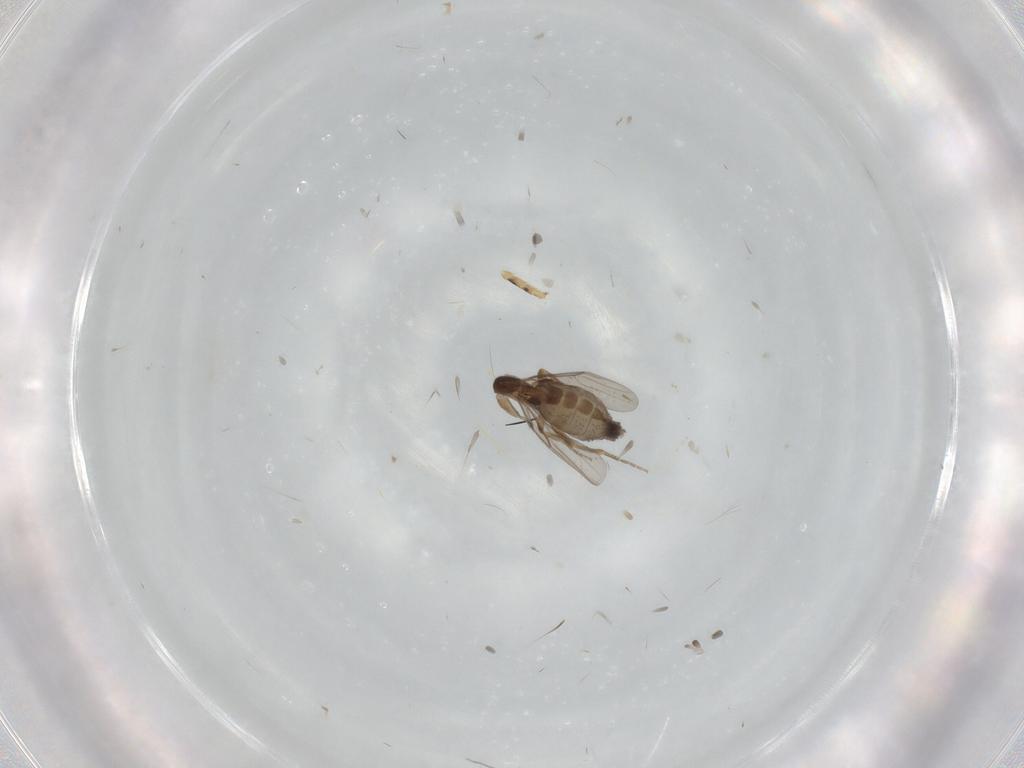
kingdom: Animalia
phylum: Arthropoda
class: Insecta
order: Diptera
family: Phoridae
